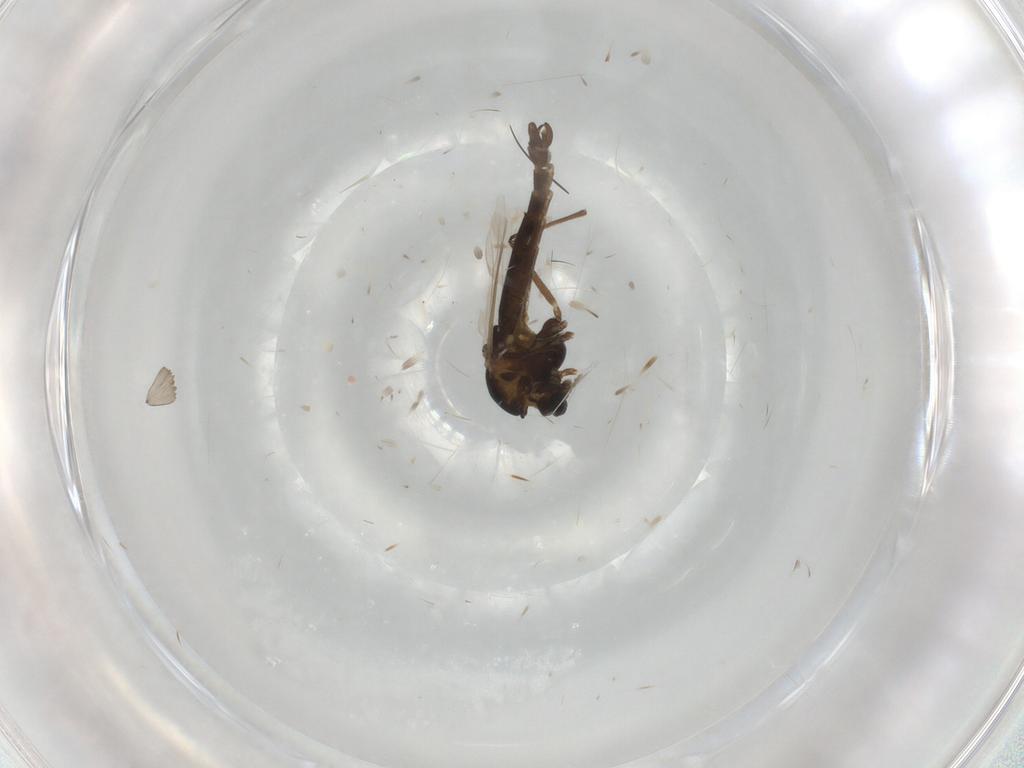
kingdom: Animalia
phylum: Arthropoda
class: Insecta
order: Diptera
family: Chironomidae
